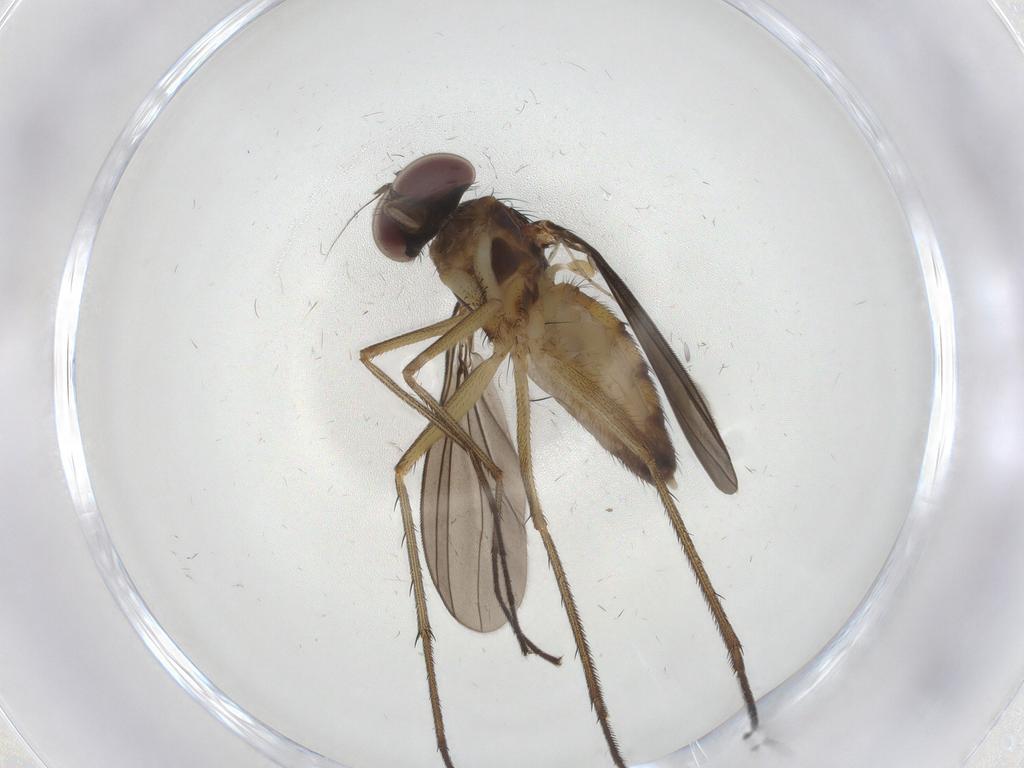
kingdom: Animalia
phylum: Arthropoda
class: Insecta
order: Diptera
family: Dolichopodidae
